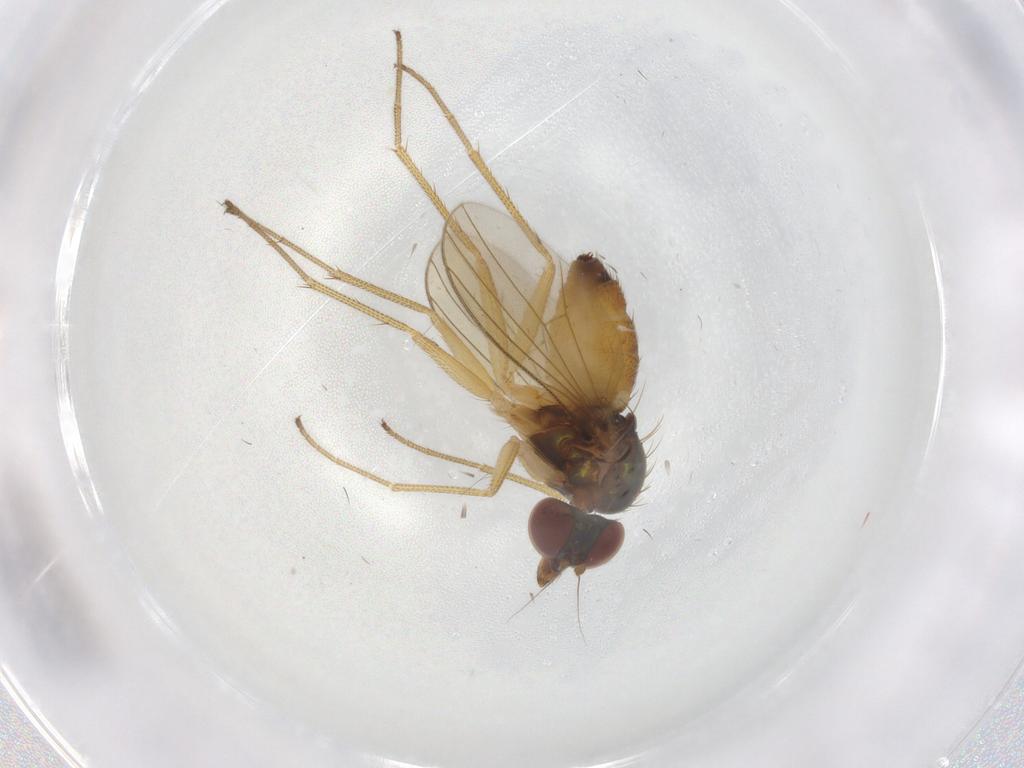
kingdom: Animalia
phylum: Arthropoda
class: Insecta
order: Diptera
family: Dolichopodidae
